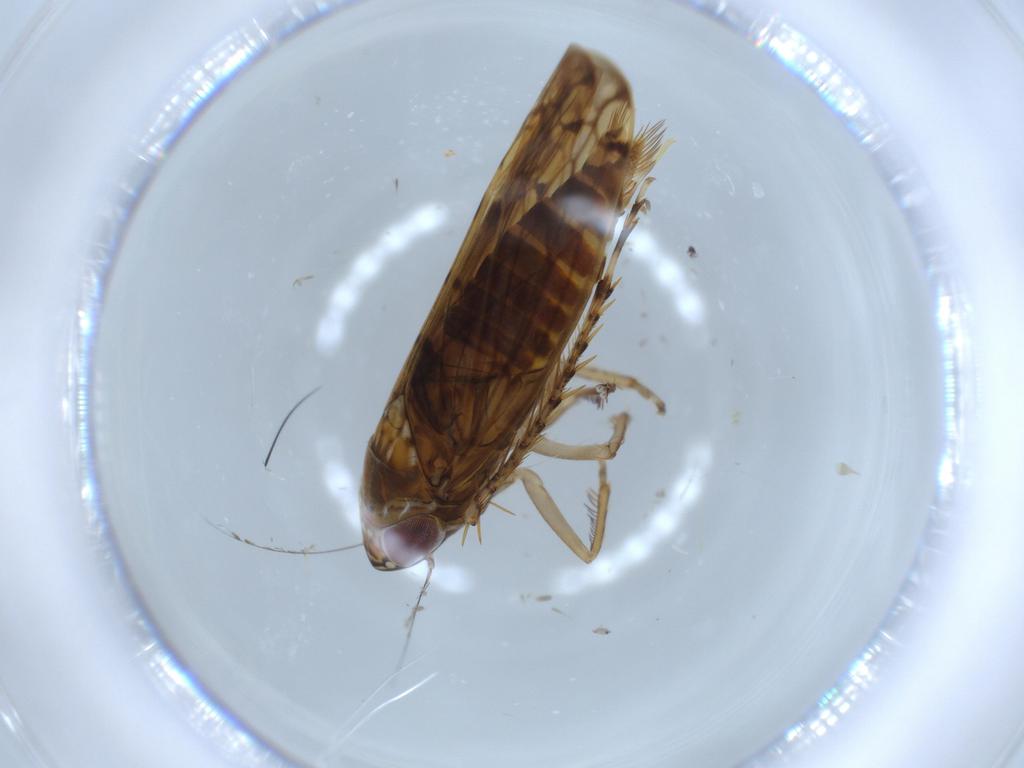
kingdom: Animalia
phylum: Arthropoda
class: Insecta
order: Hemiptera
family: Cicadellidae
